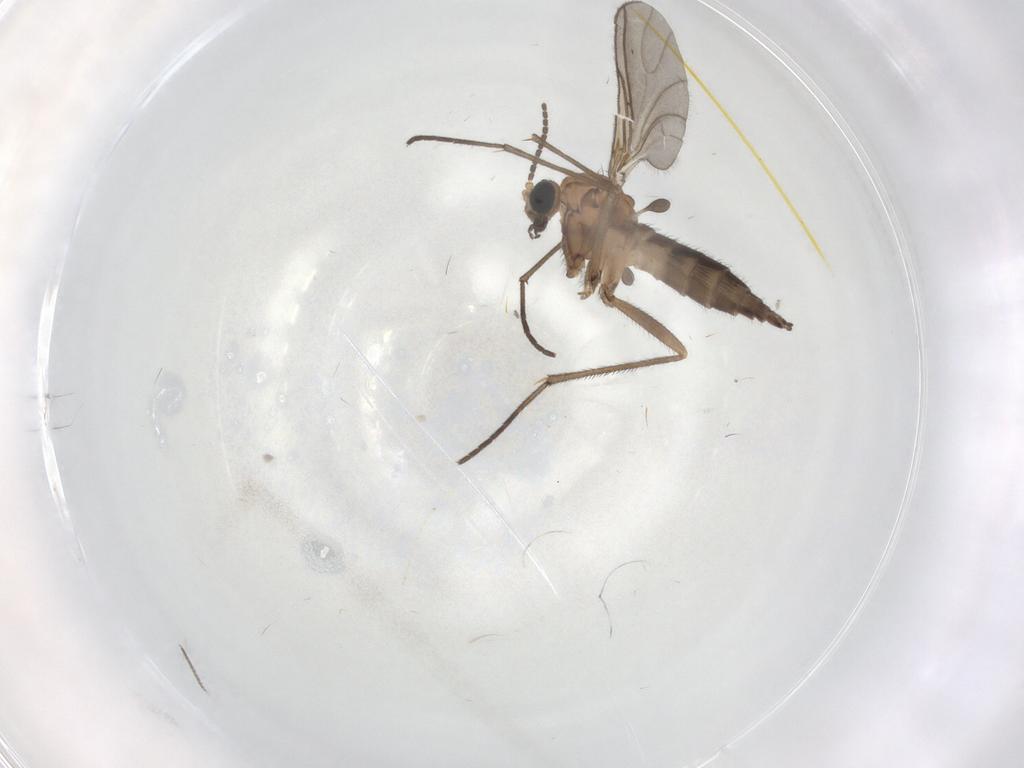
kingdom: Animalia
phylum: Arthropoda
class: Insecta
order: Diptera
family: Sciaridae
